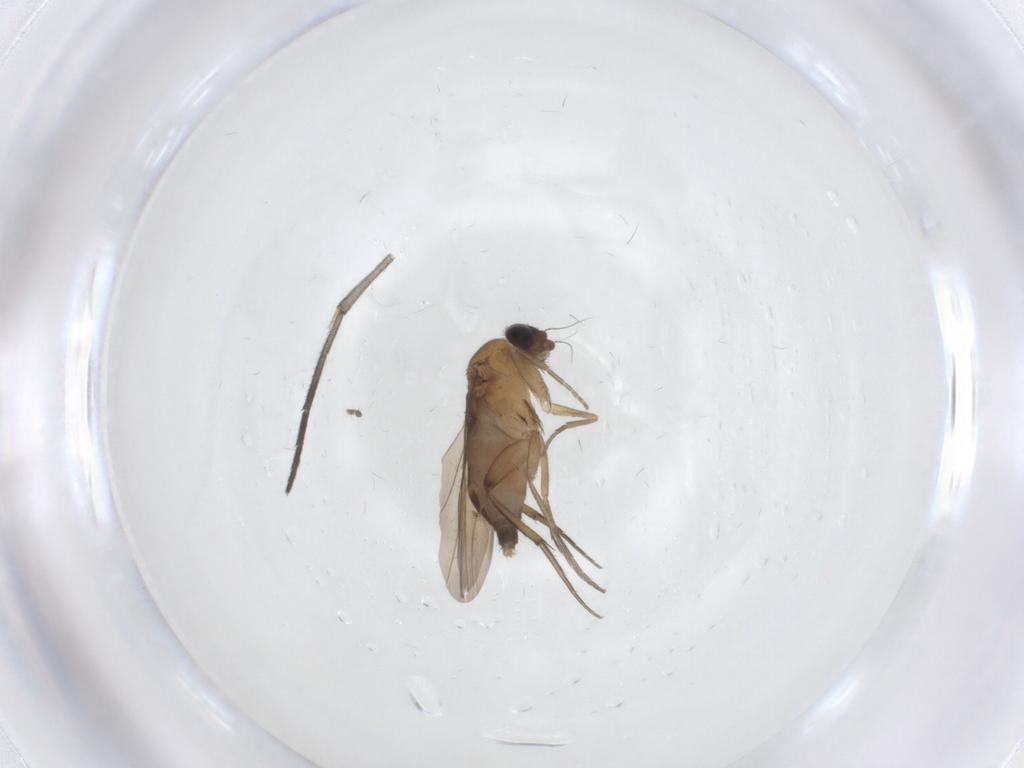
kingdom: Animalia
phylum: Arthropoda
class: Insecta
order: Diptera
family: Phoridae
